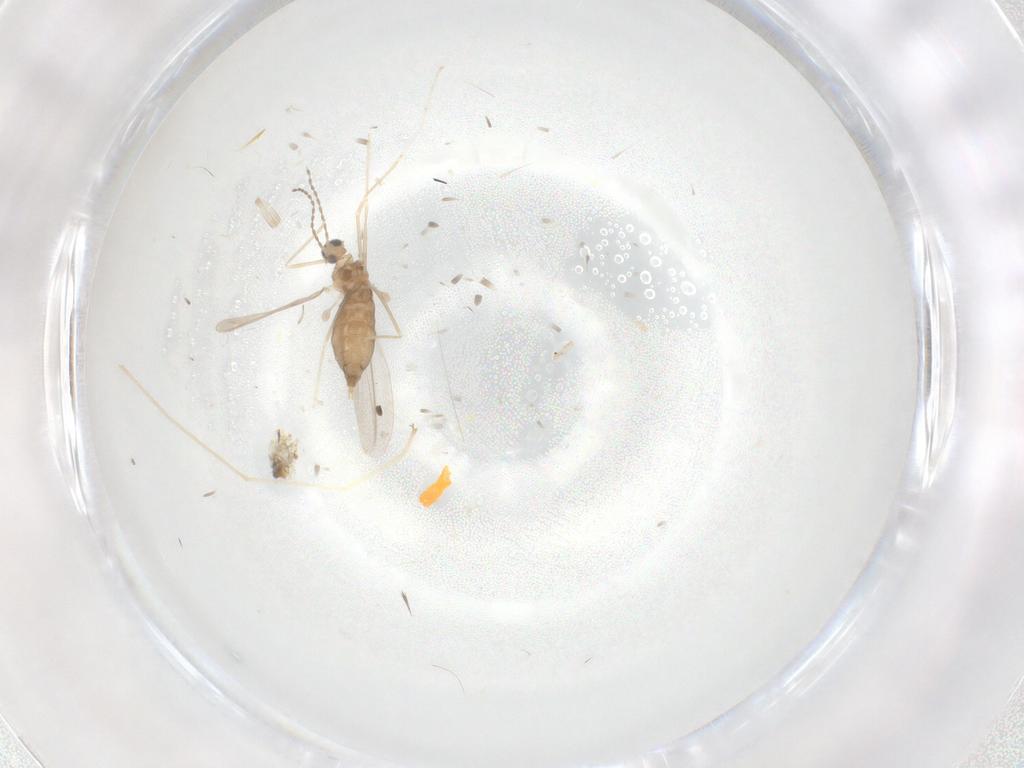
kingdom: Animalia
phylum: Arthropoda
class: Insecta
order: Diptera
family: Cecidomyiidae
